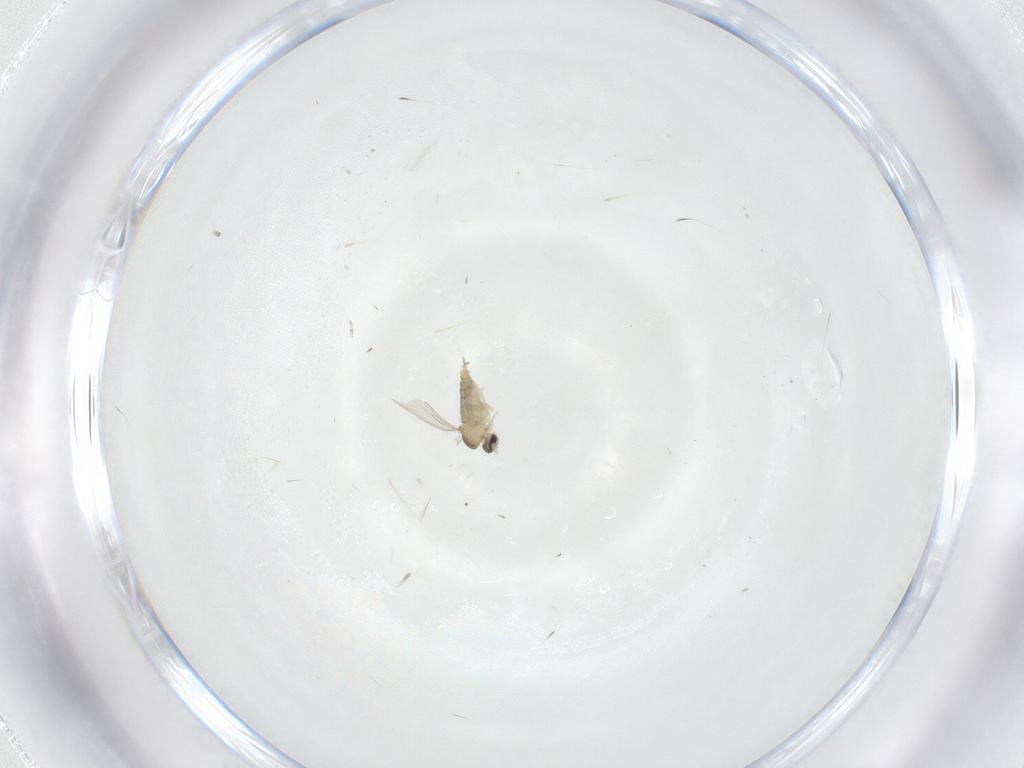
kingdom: Animalia
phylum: Arthropoda
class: Insecta
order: Diptera
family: Cecidomyiidae
